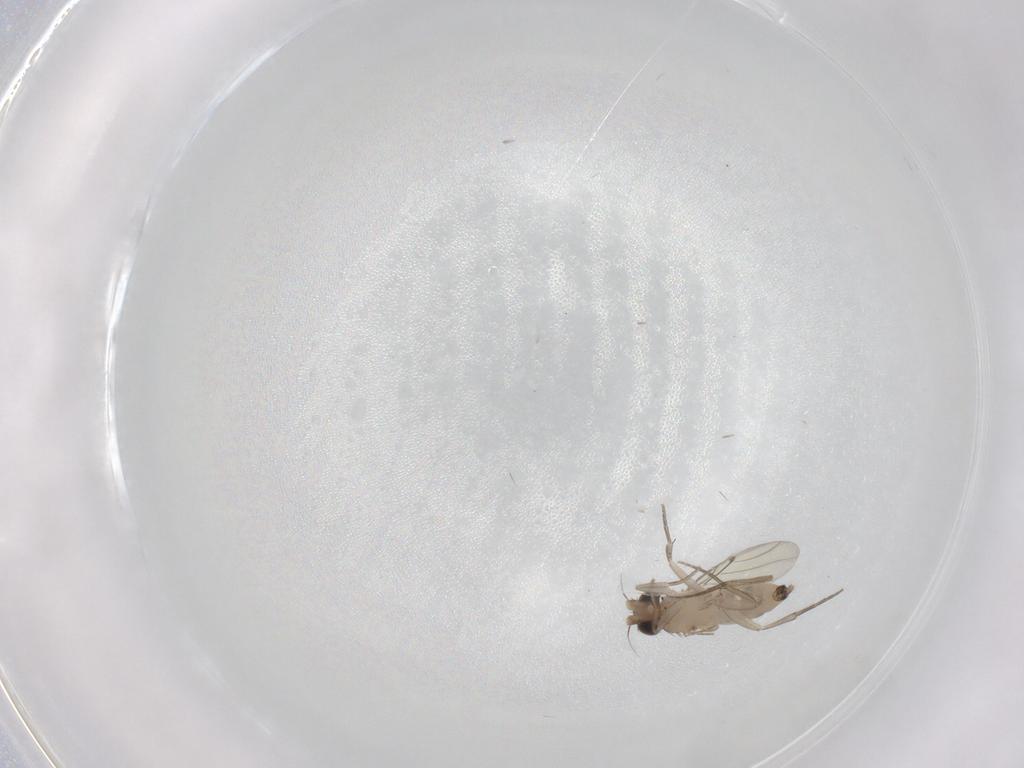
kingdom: Animalia
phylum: Arthropoda
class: Insecta
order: Diptera
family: Phoridae
